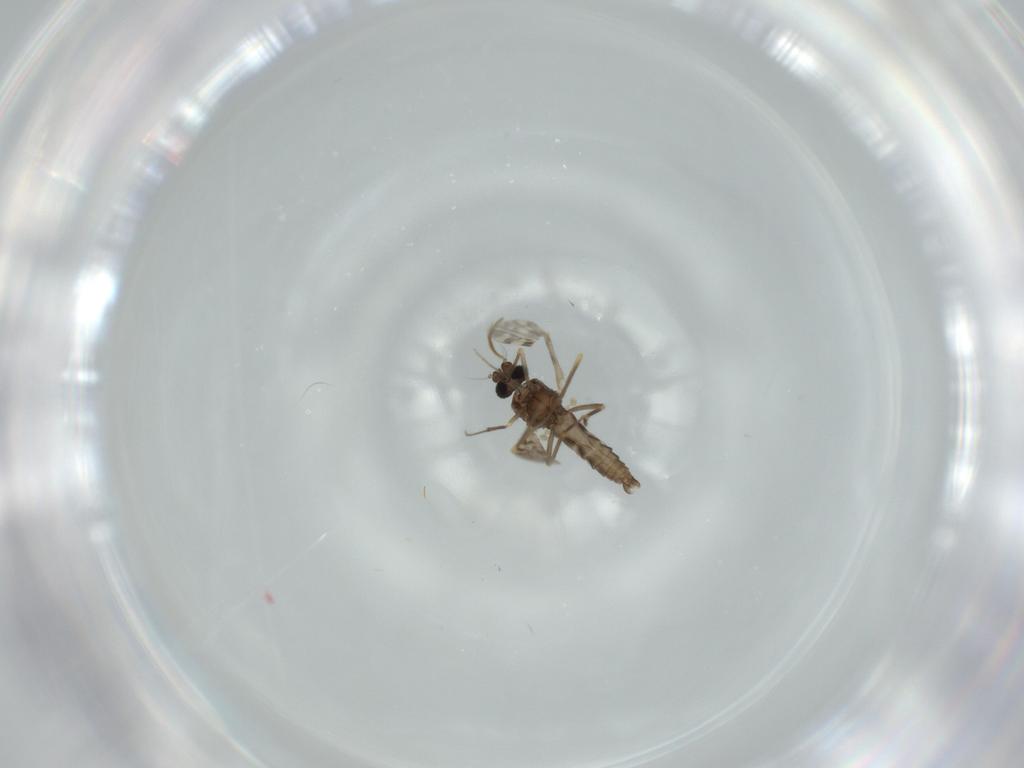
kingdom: Animalia
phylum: Arthropoda
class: Insecta
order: Diptera
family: Sphaeroceridae
